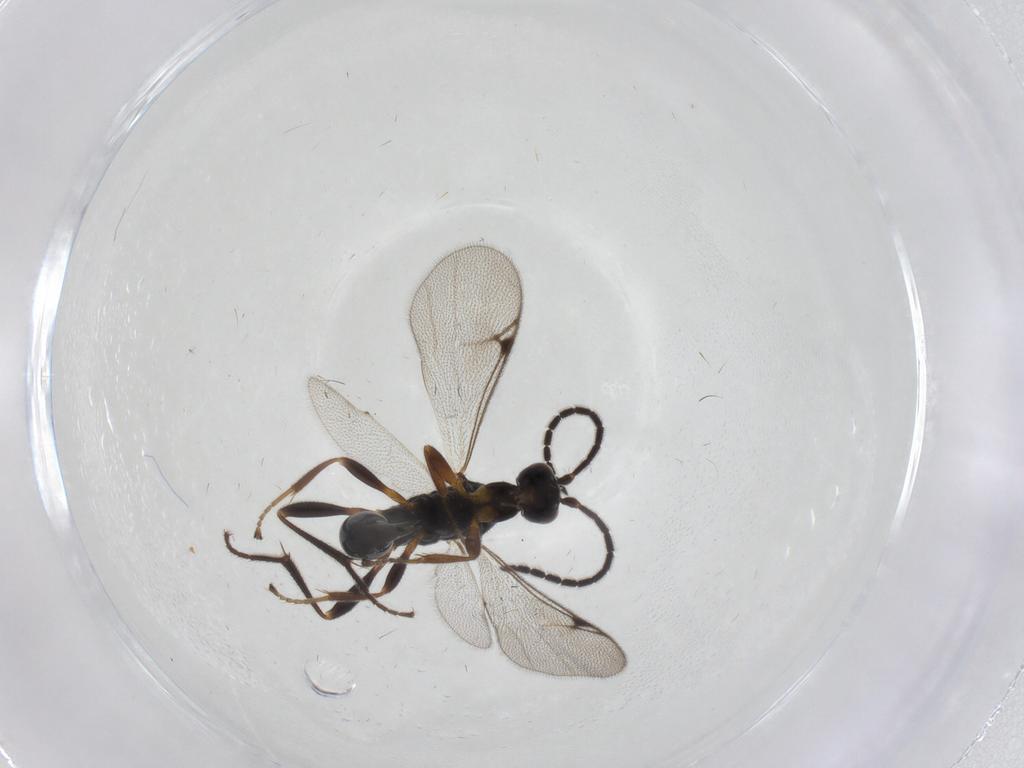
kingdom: Animalia
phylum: Arthropoda
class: Insecta
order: Hymenoptera
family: Proctotrupidae
